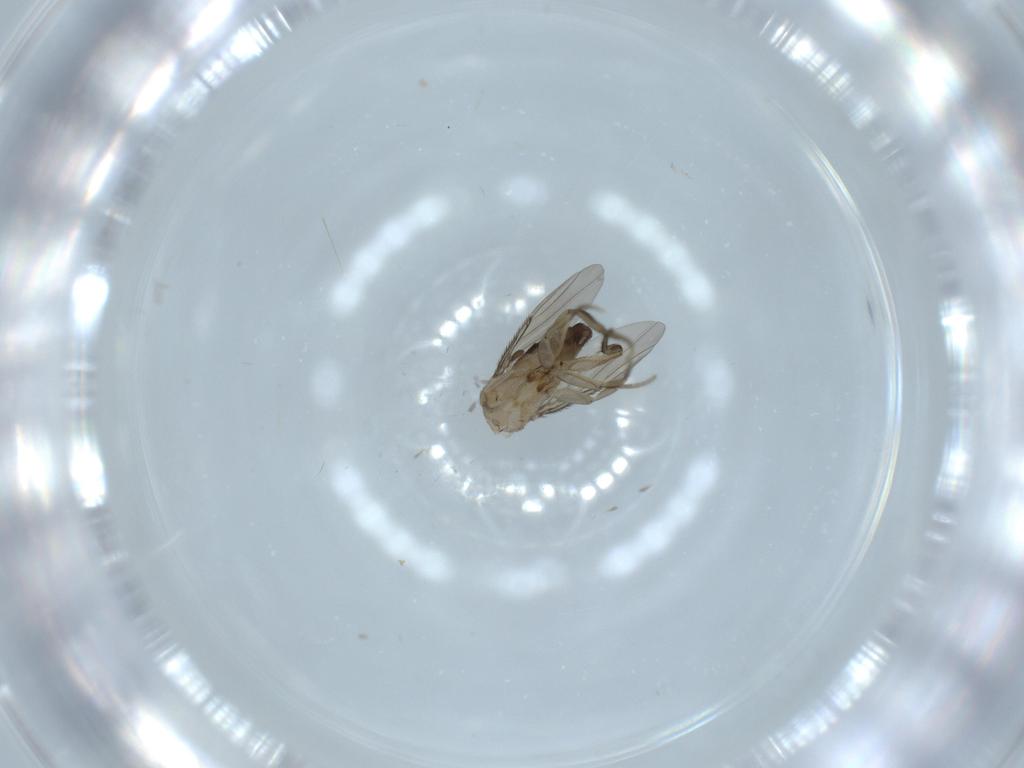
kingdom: Animalia
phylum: Arthropoda
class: Insecta
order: Diptera
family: Phoridae
